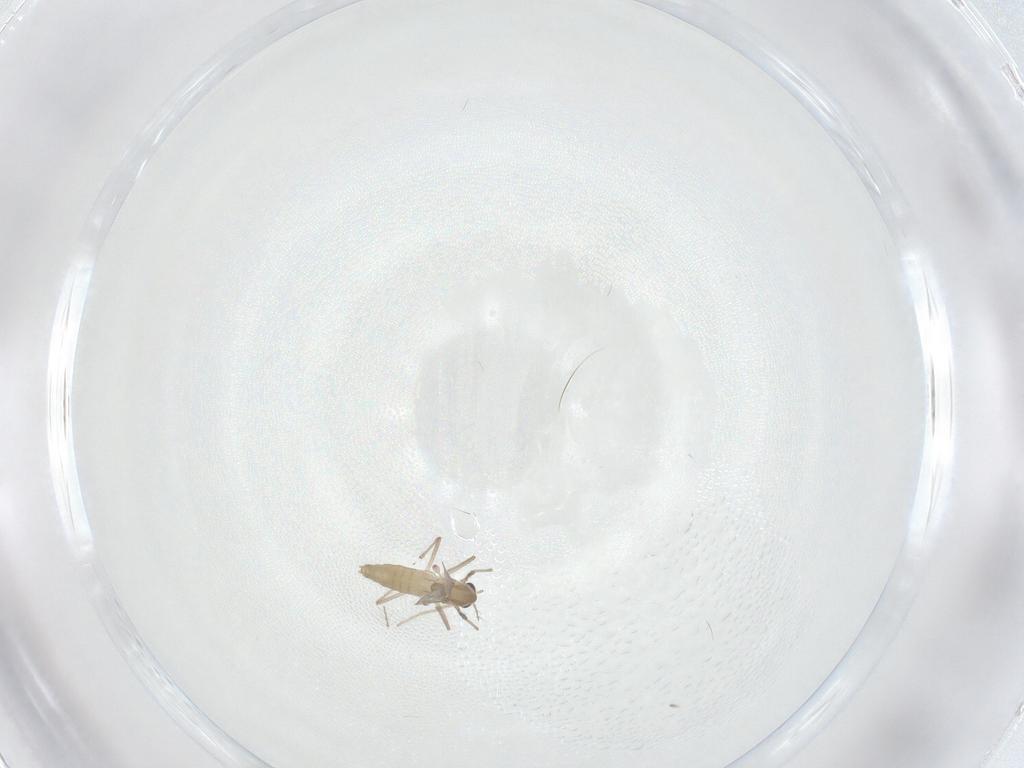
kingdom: Animalia
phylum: Arthropoda
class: Insecta
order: Diptera
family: Chironomidae
